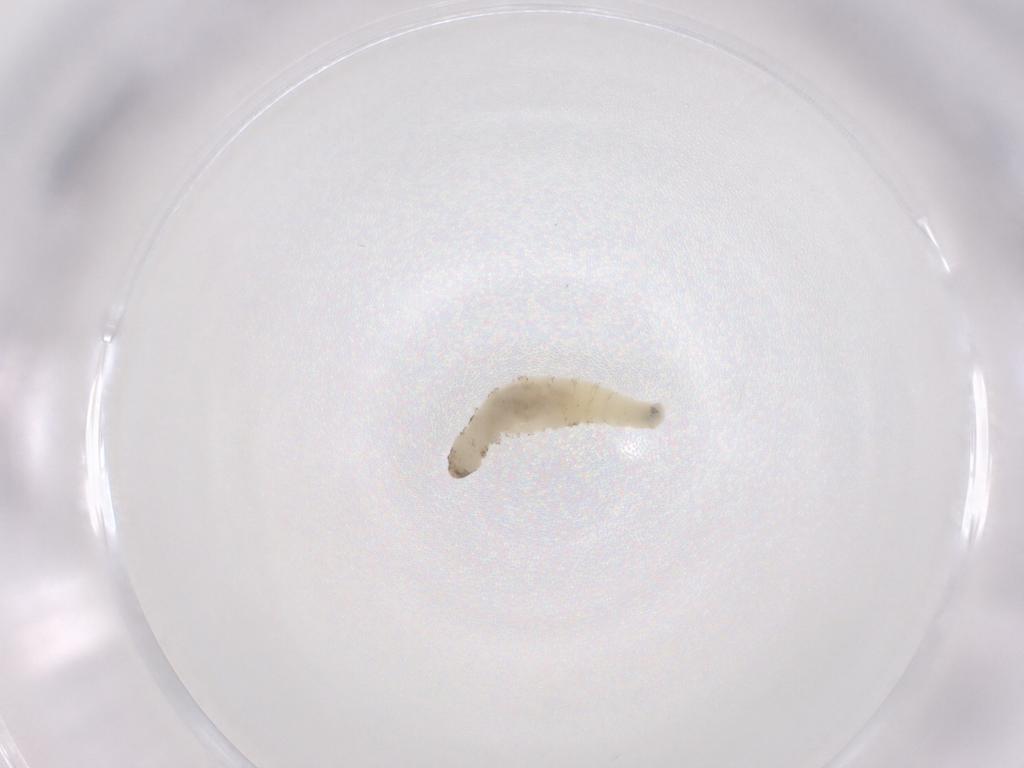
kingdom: Animalia
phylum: Arthropoda
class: Insecta
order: Diptera
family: Drosophilidae
